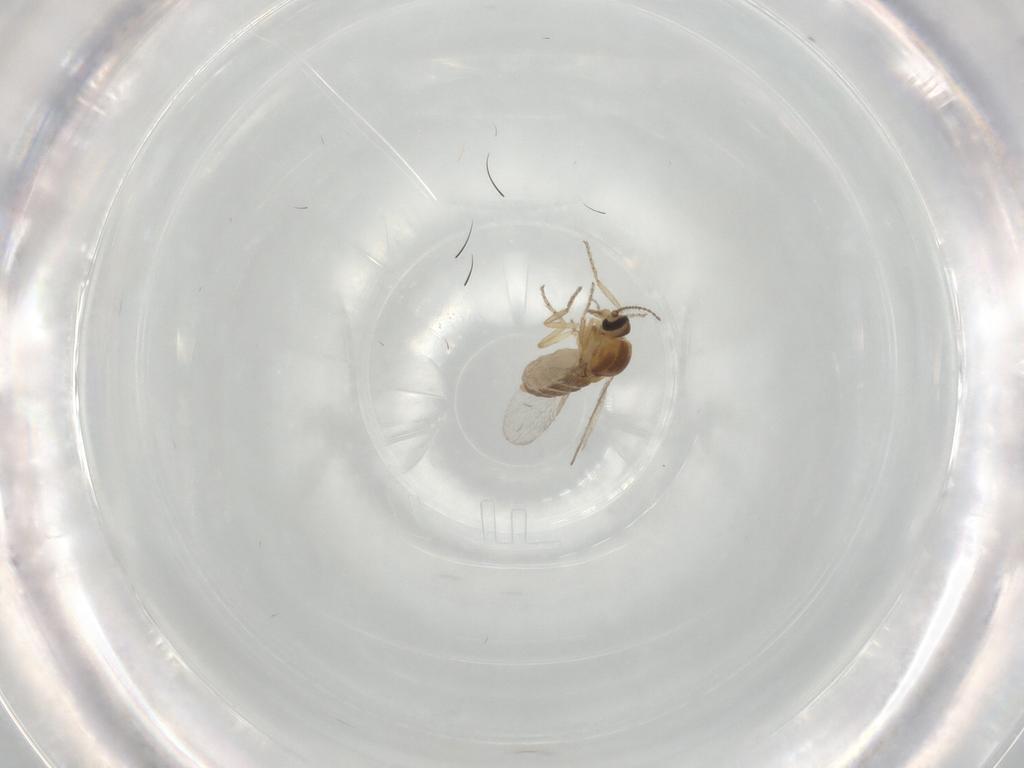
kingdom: Animalia
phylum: Arthropoda
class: Insecta
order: Diptera
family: Ceratopogonidae
